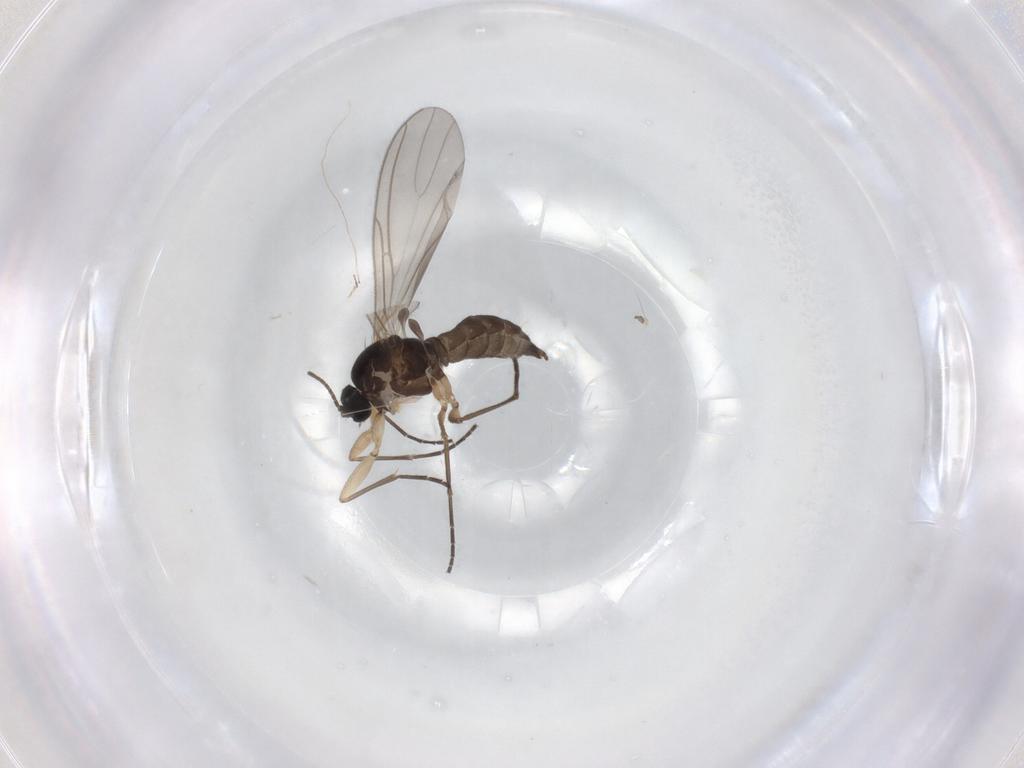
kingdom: Animalia
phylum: Arthropoda
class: Insecta
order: Diptera
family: Sciaridae
